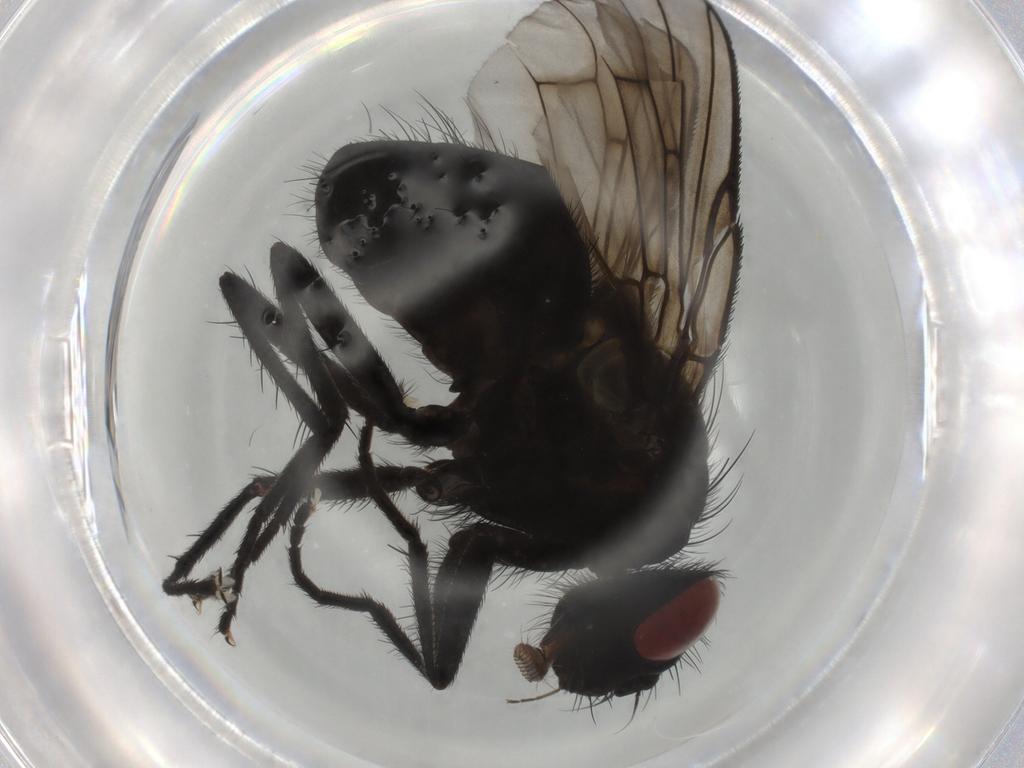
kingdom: Animalia
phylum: Arthropoda
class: Insecta
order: Diptera
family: Muscidae
